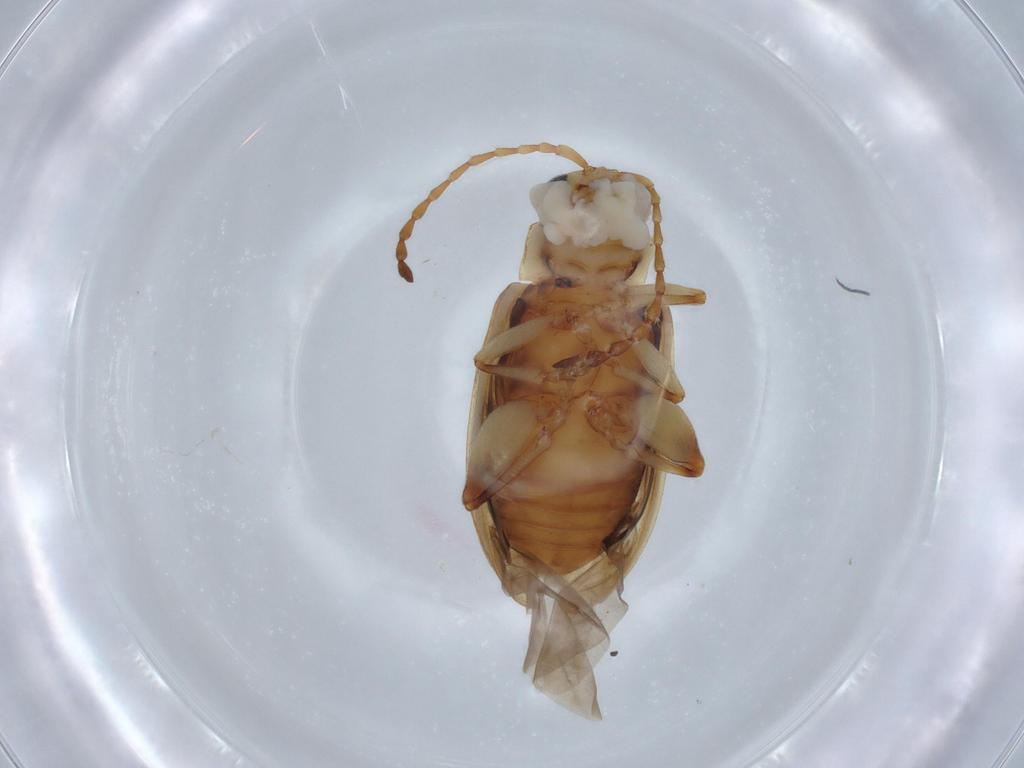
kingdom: Animalia
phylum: Arthropoda
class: Insecta
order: Coleoptera
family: Chrysomelidae
